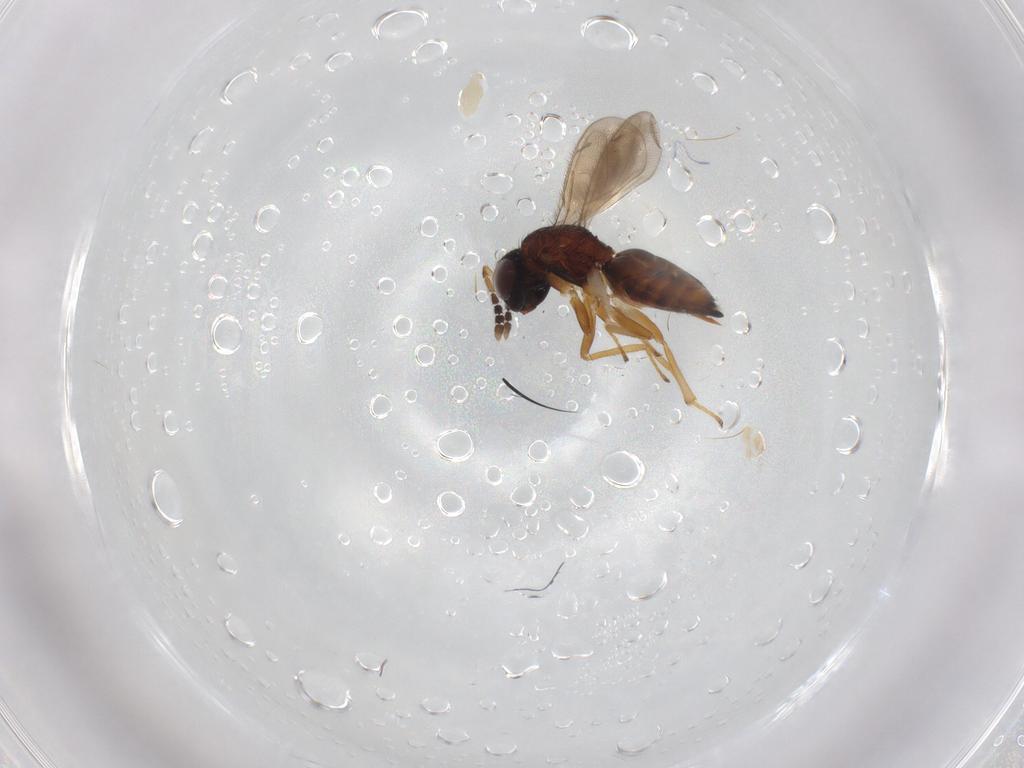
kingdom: Animalia
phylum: Arthropoda
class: Insecta
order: Hymenoptera
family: Eulophidae
